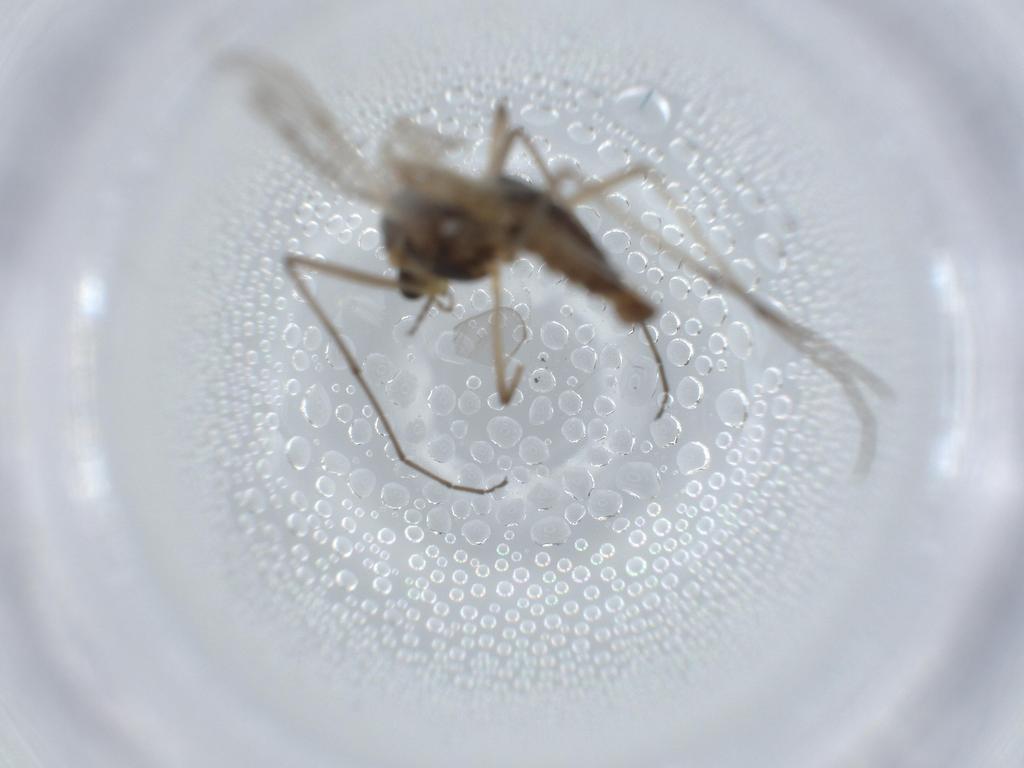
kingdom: Animalia
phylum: Arthropoda
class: Insecta
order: Diptera
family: Chironomidae
